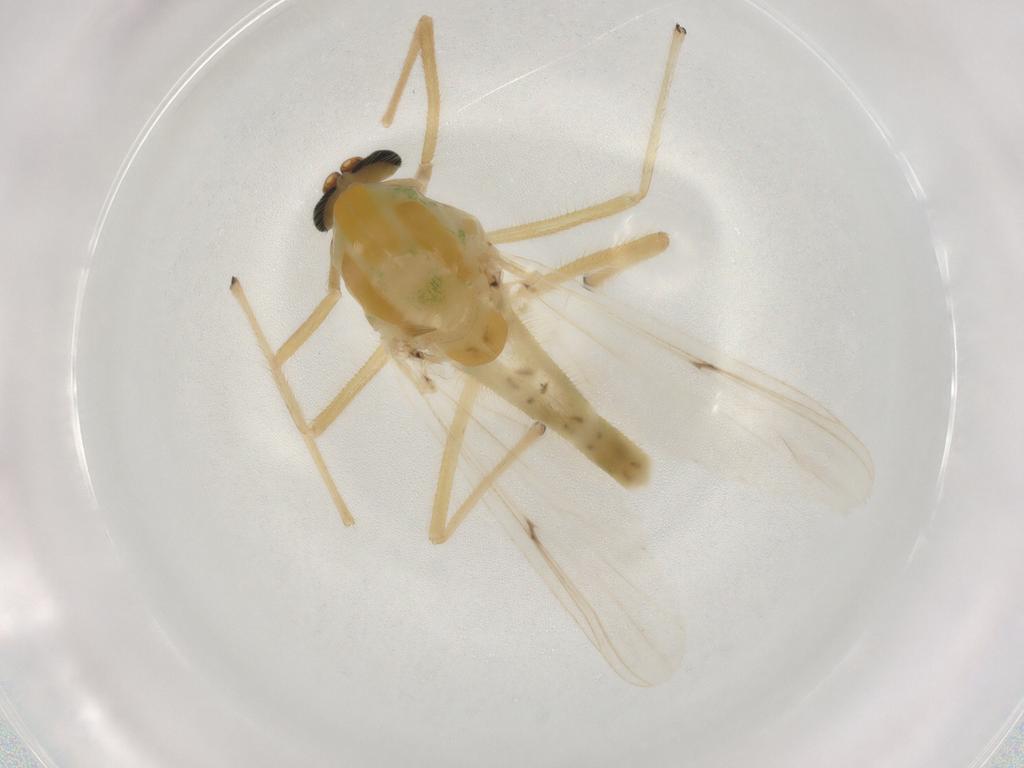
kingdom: Animalia
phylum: Arthropoda
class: Insecta
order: Diptera
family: Chironomidae
